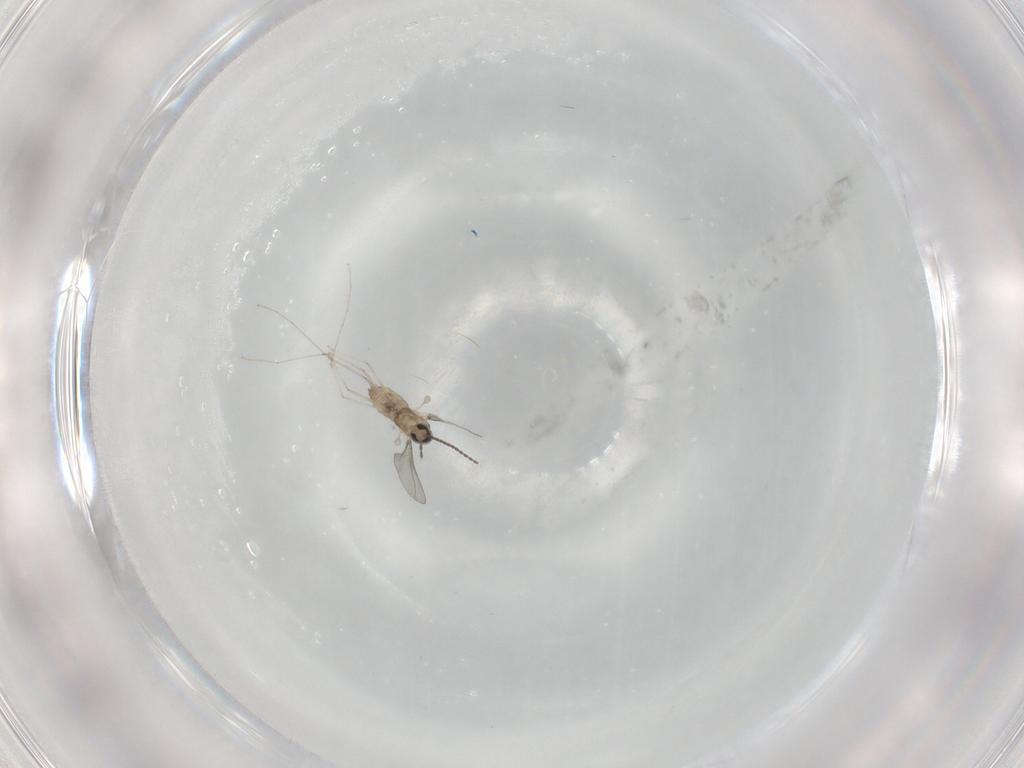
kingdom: Animalia
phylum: Arthropoda
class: Insecta
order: Diptera
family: Cecidomyiidae
